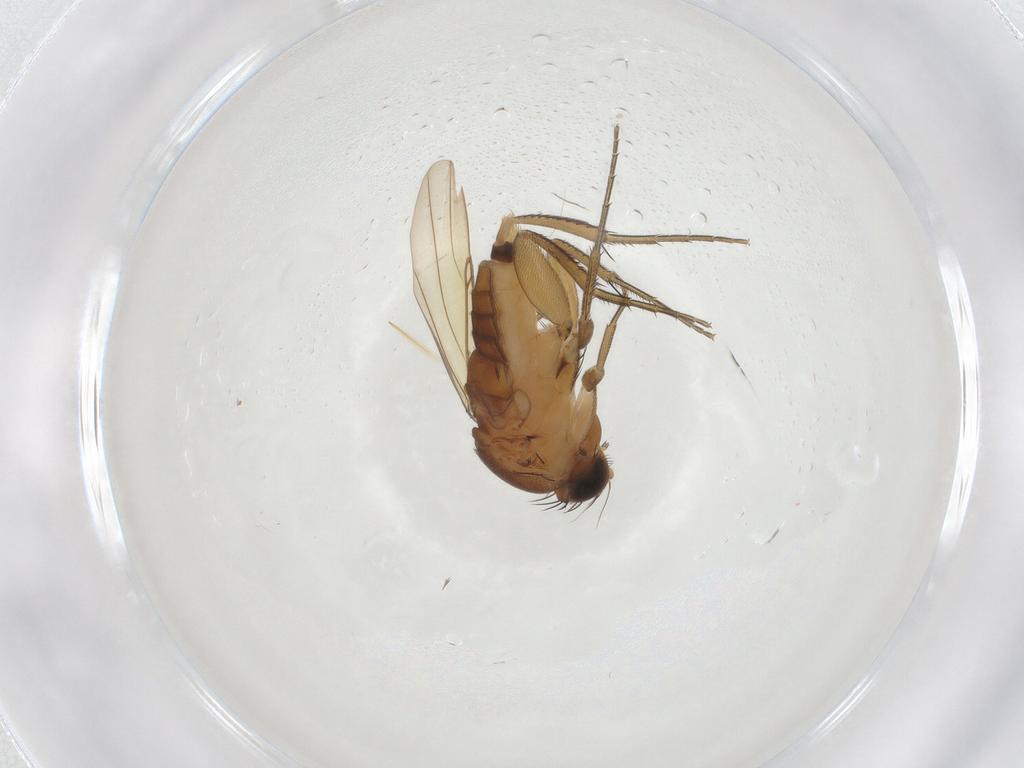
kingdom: Animalia
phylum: Arthropoda
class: Insecta
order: Diptera
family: Phoridae
